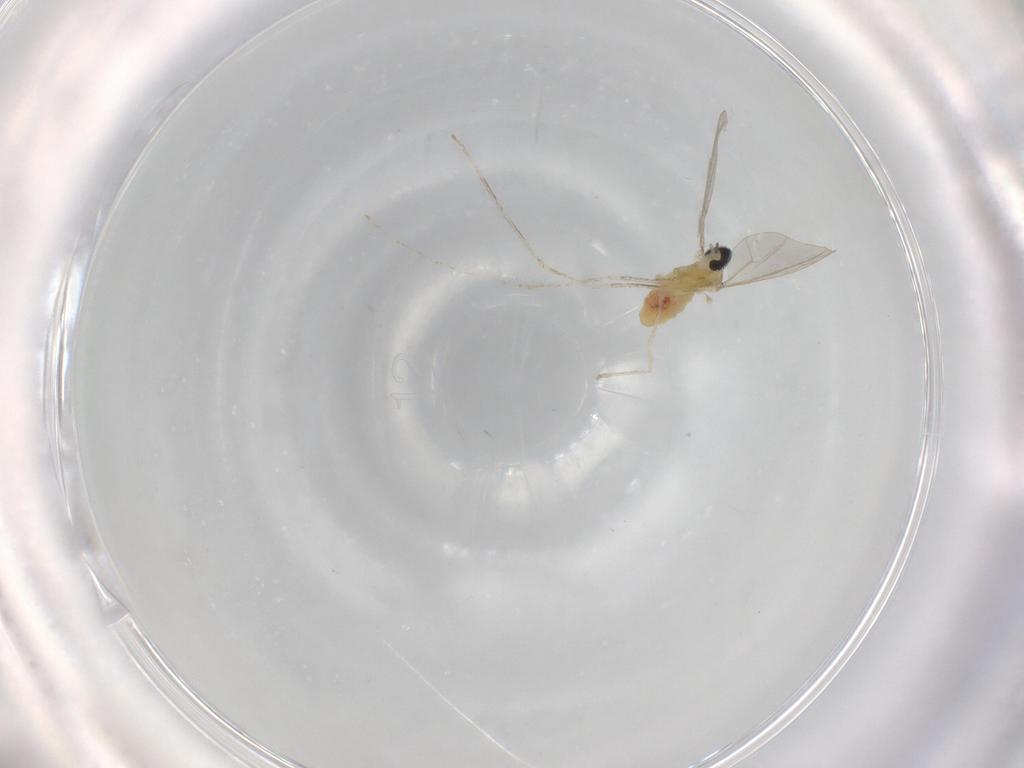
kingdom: Animalia
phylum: Arthropoda
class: Insecta
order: Diptera
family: Cecidomyiidae
